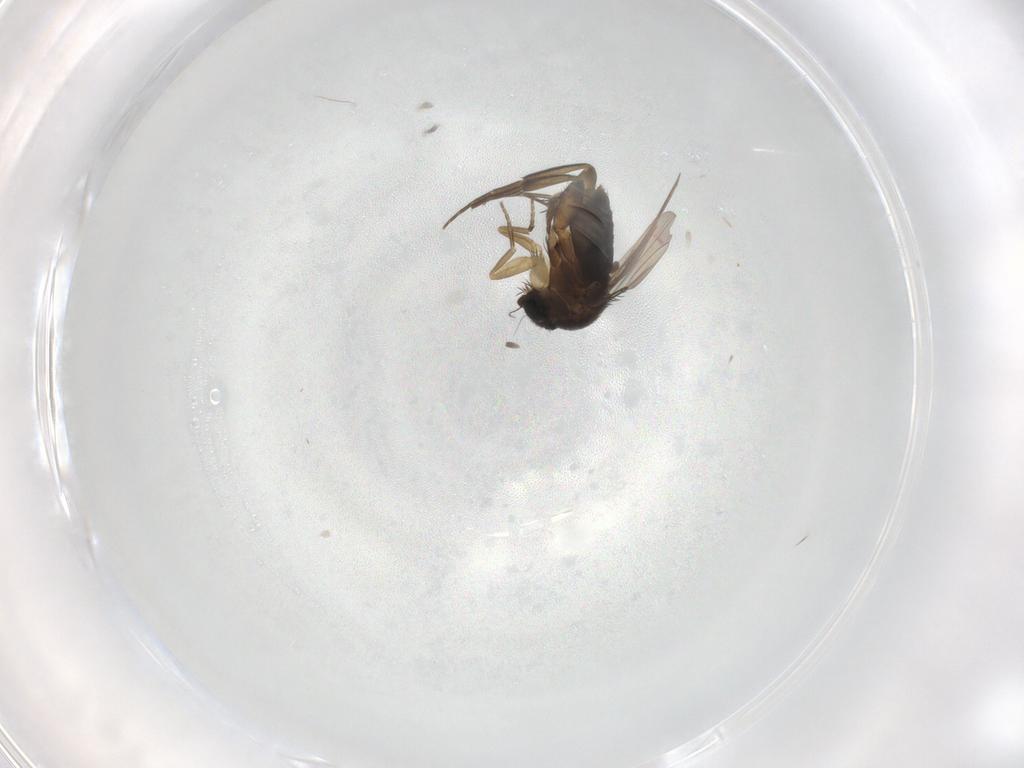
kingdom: Animalia
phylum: Arthropoda
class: Insecta
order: Diptera
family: Phoridae
